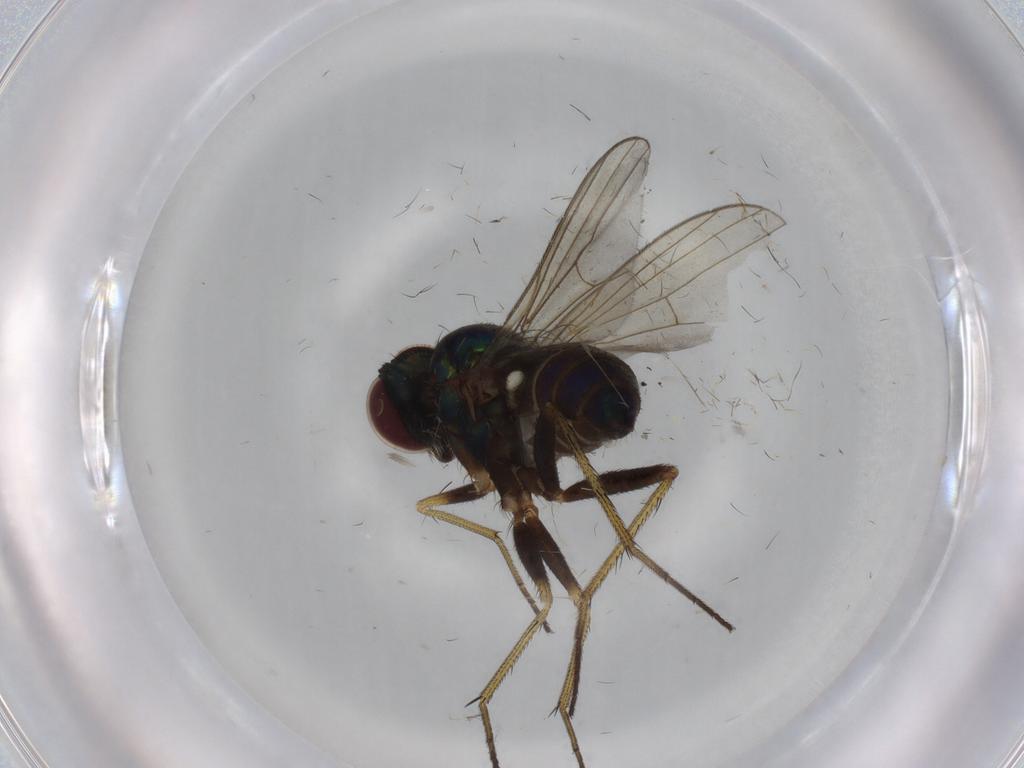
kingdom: Animalia
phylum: Arthropoda
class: Insecta
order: Diptera
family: Dolichopodidae
